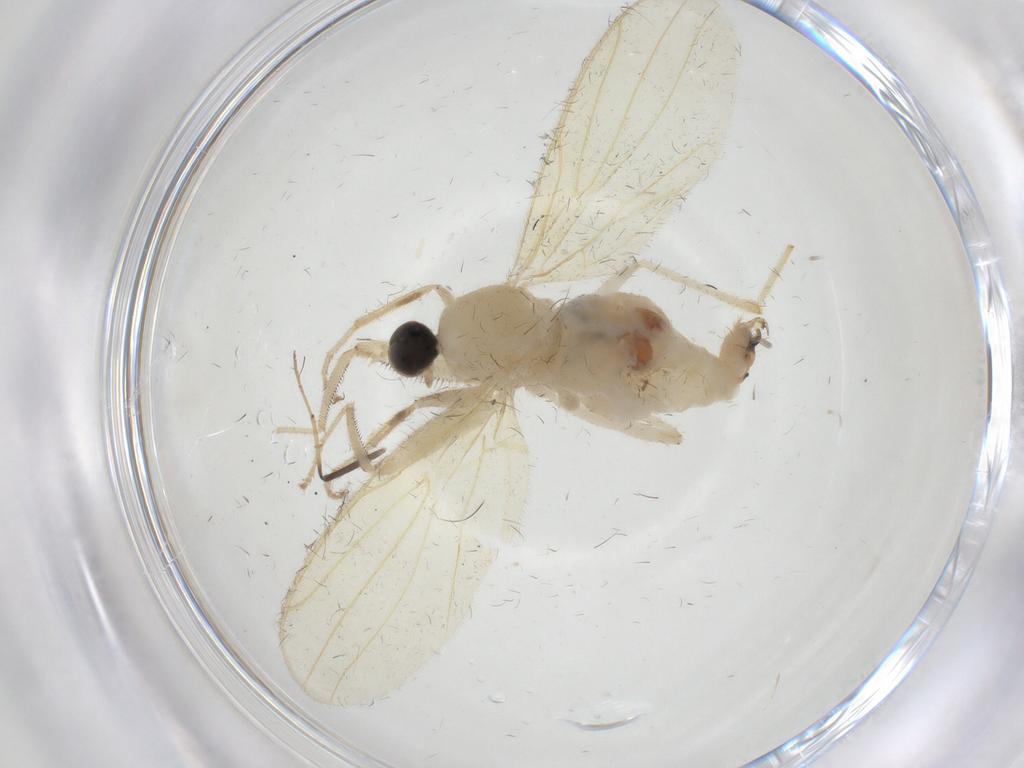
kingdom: Animalia
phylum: Arthropoda
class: Insecta
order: Diptera
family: Hybotidae
